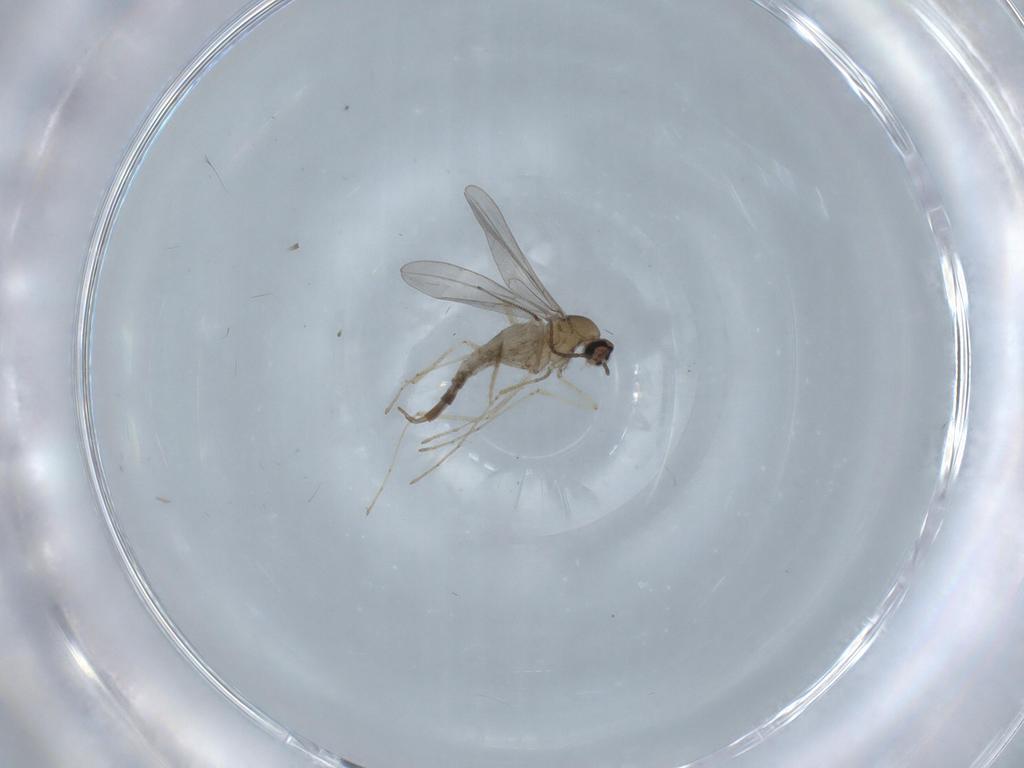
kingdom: Animalia
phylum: Arthropoda
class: Insecta
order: Diptera
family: Cecidomyiidae
